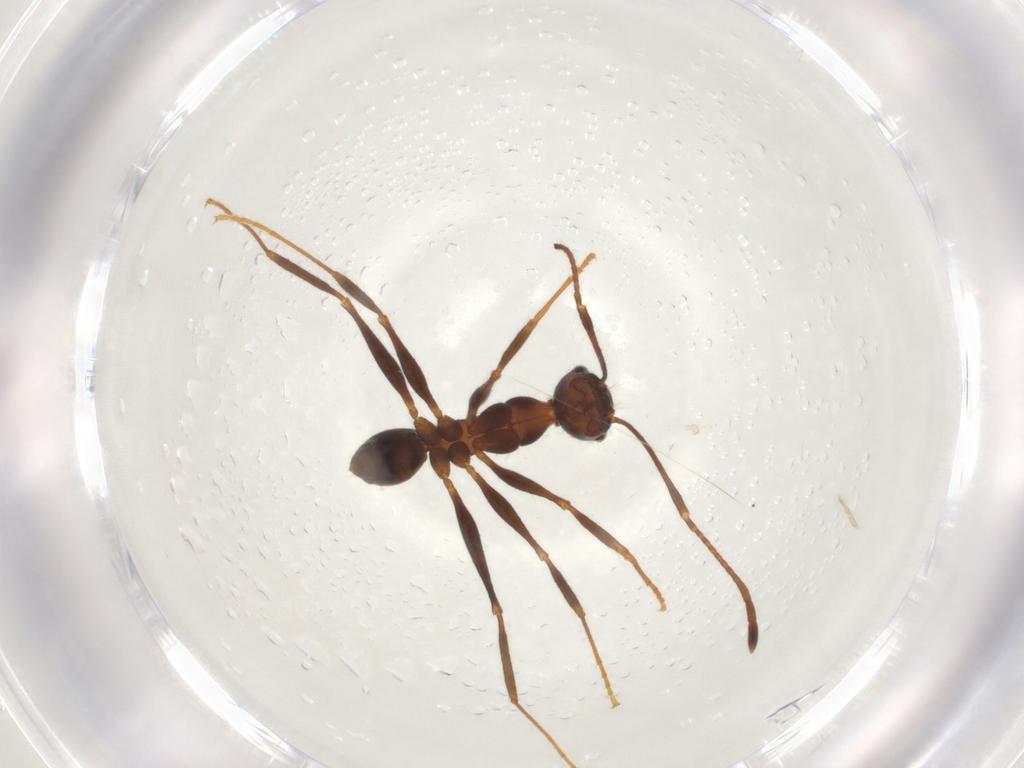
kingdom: Animalia
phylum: Arthropoda
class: Insecta
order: Hymenoptera
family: Formicidae
